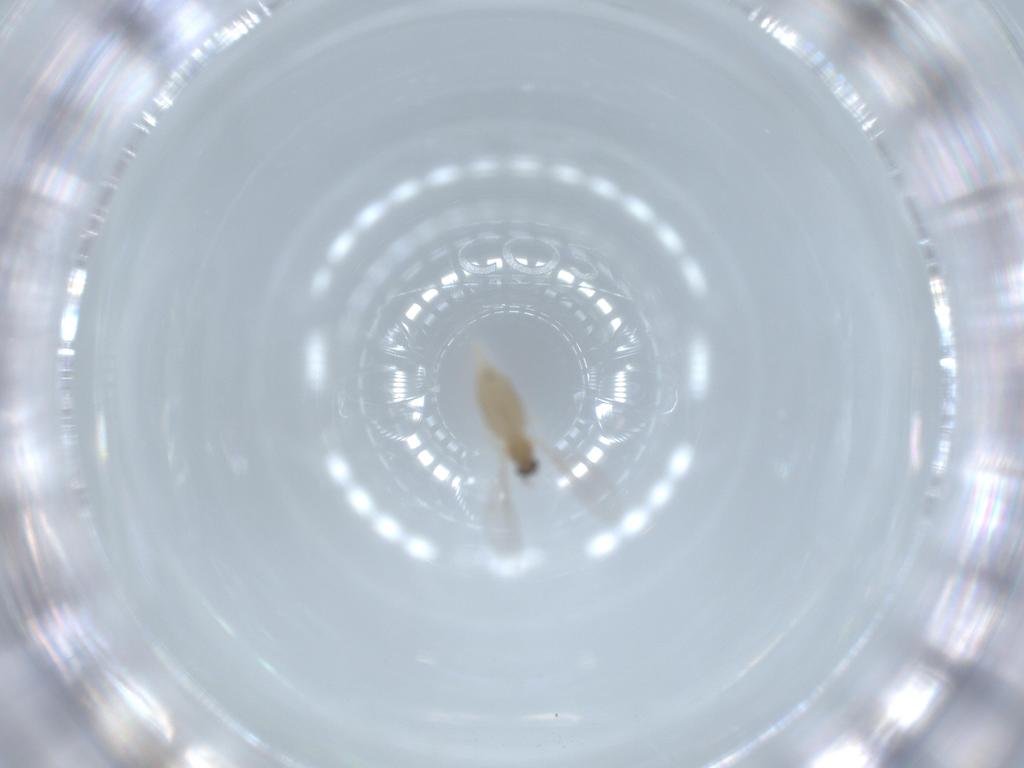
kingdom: Animalia
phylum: Arthropoda
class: Insecta
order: Diptera
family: Cecidomyiidae
